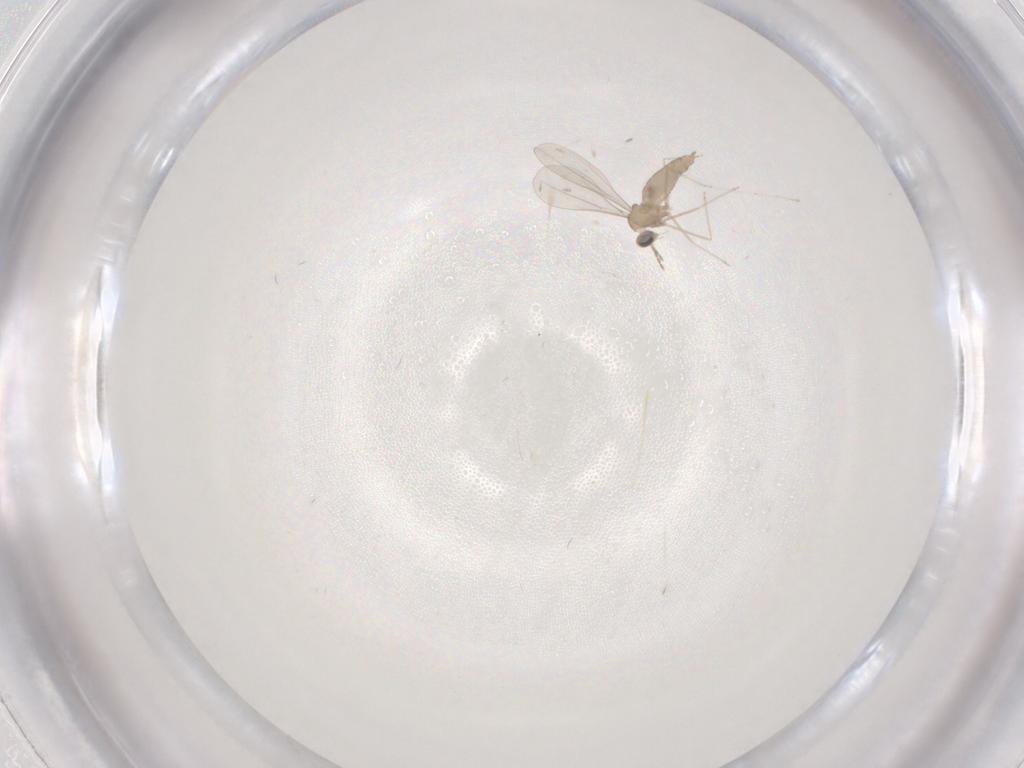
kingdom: Animalia
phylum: Arthropoda
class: Insecta
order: Diptera
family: Cecidomyiidae
